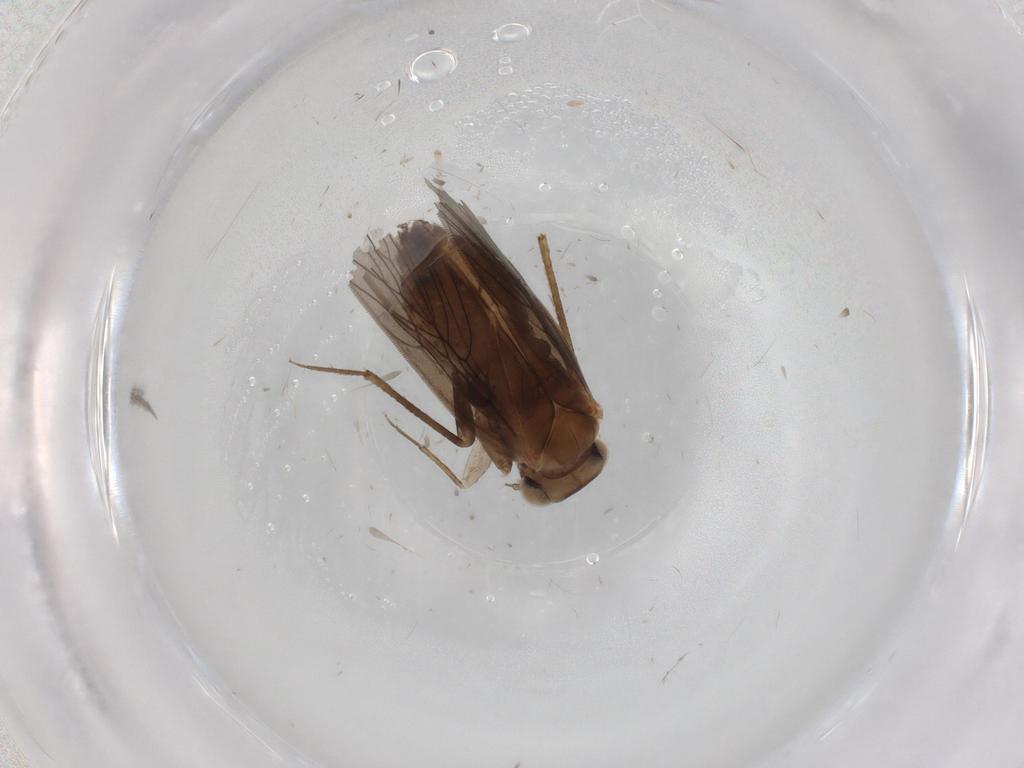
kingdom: Animalia
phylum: Arthropoda
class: Insecta
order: Psocodea
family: Lepidopsocidae
